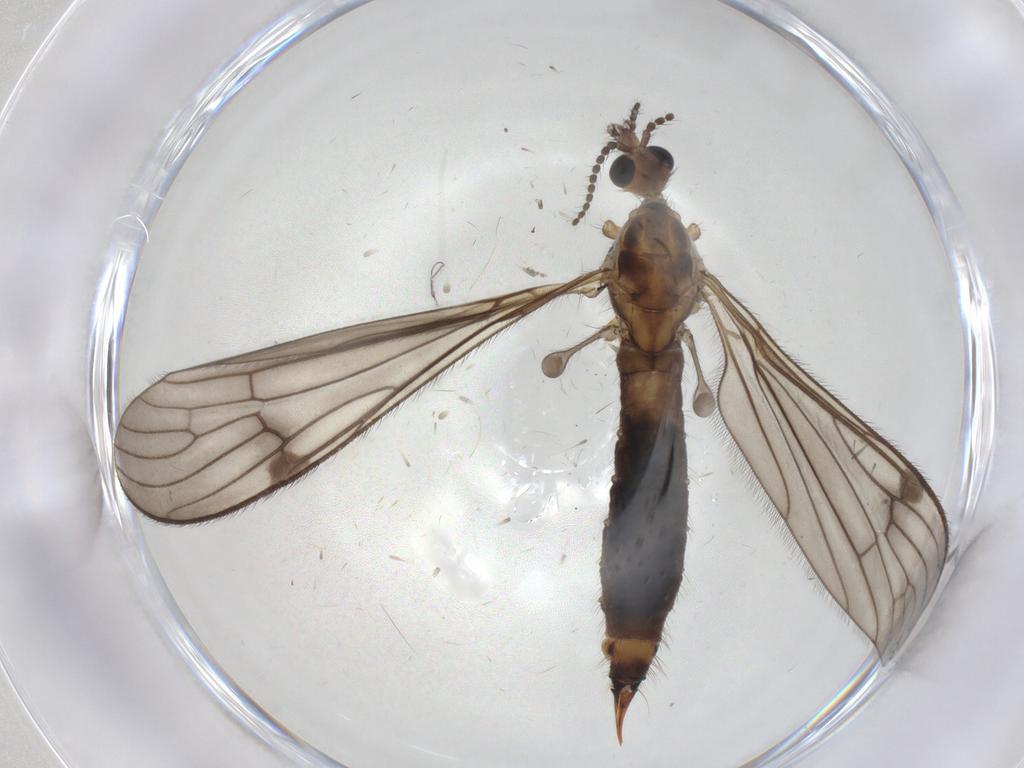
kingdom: Animalia
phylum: Arthropoda
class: Insecta
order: Diptera
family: Limoniidae
